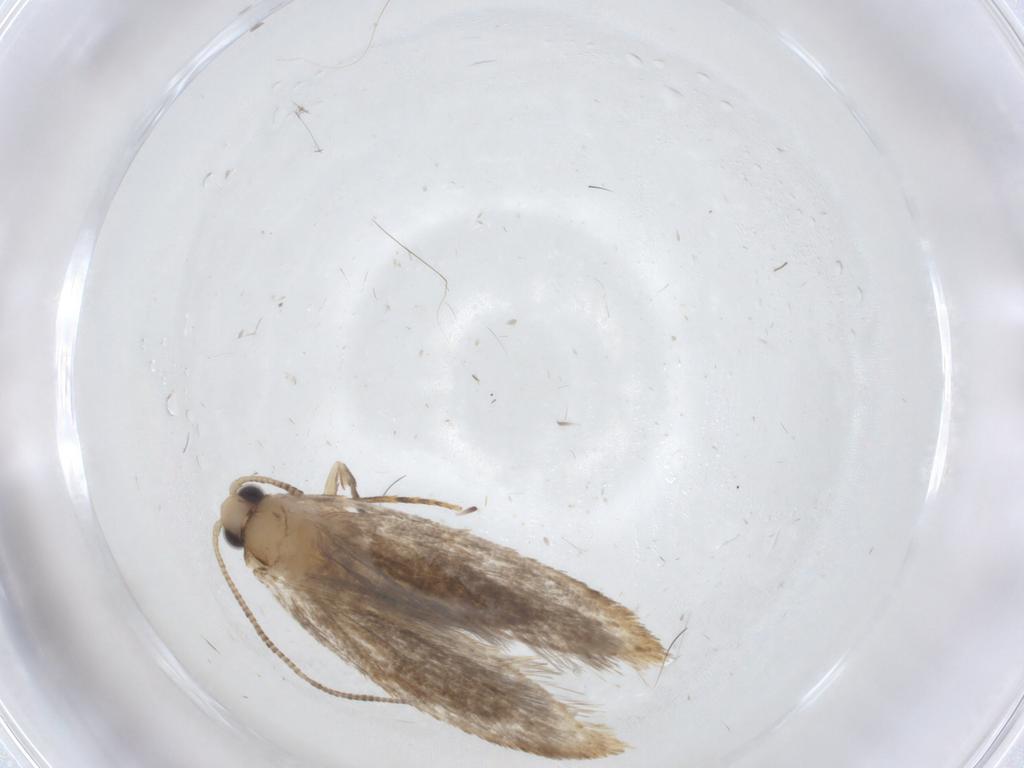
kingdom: Animalia
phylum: Arthropoda
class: Insecta
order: Lepidoptera
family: Tineidae
